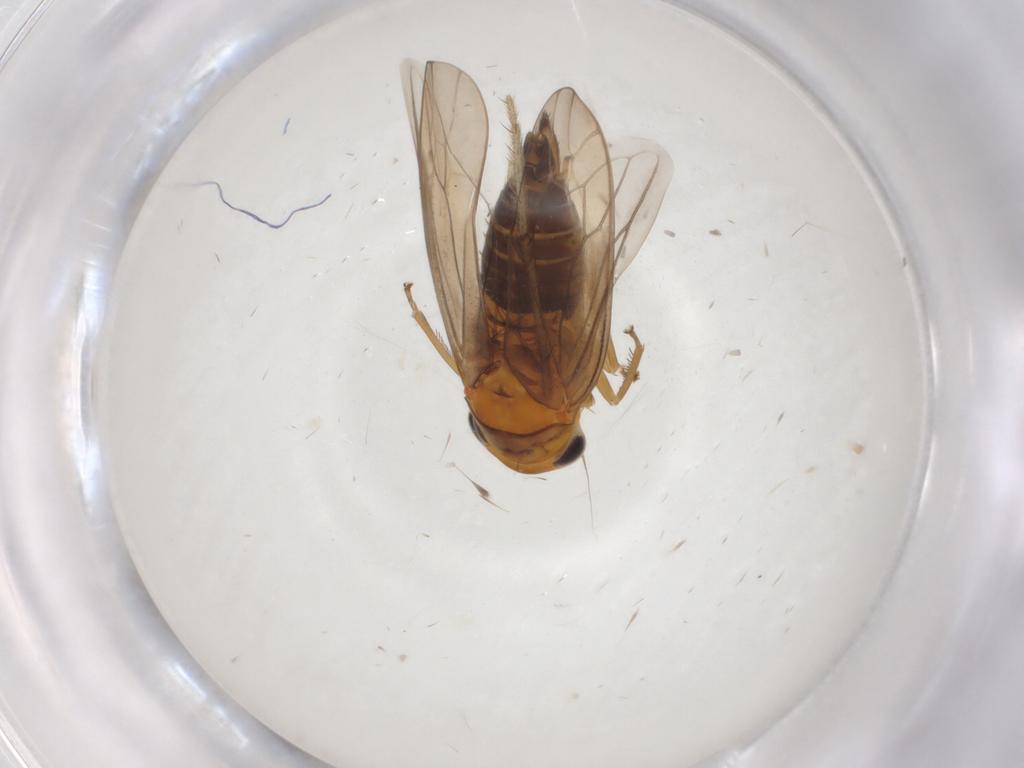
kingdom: Animalia
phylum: Arthropoda
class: Insecta
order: Hemiptera
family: Cicadellidae
